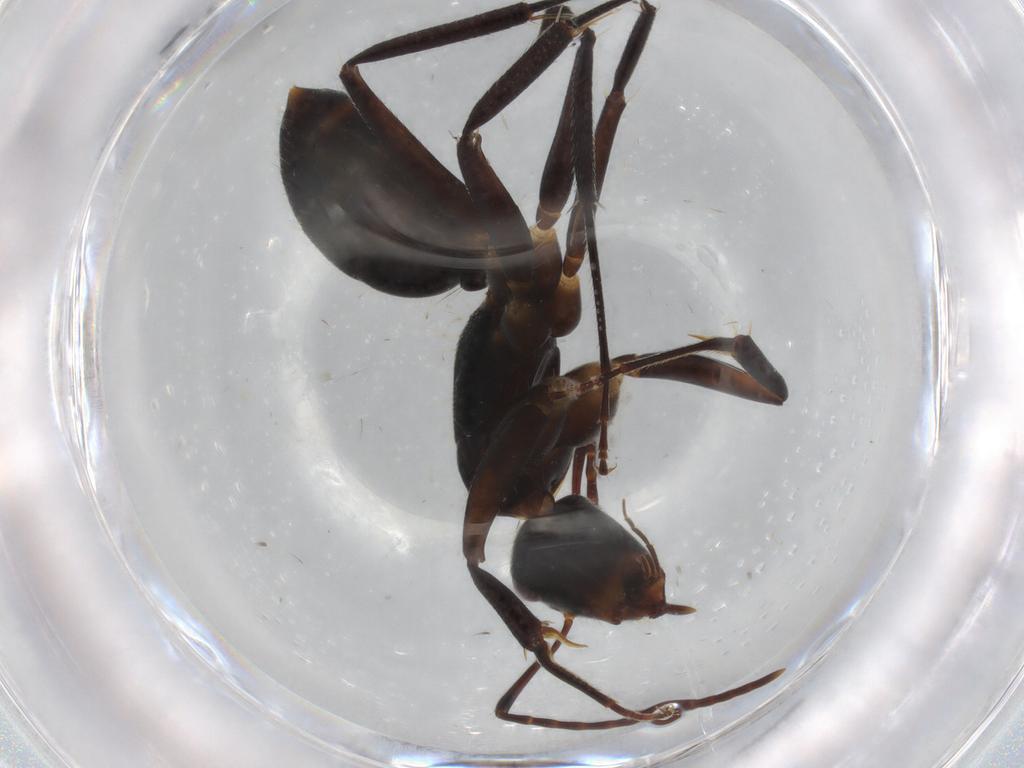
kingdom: Animalia
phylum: Arthropoda
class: Insecta
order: Hymenoptera
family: Formicidae
